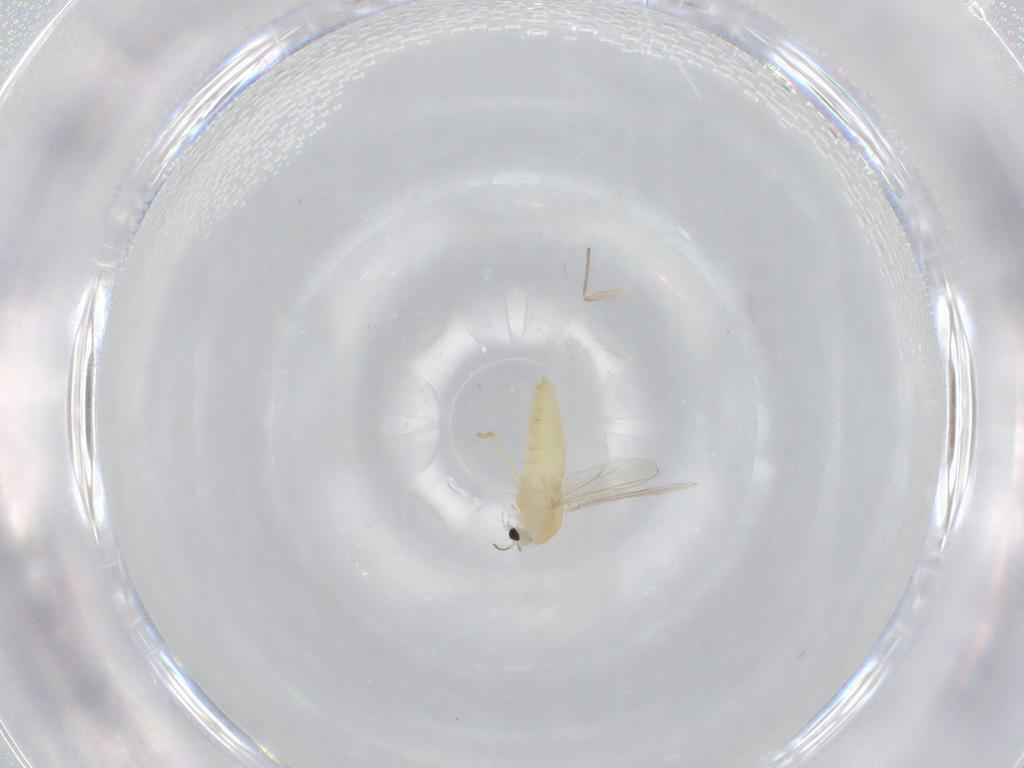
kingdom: Animalia
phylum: Arthropoda
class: Insecta
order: Diptera
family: Chironomidae
